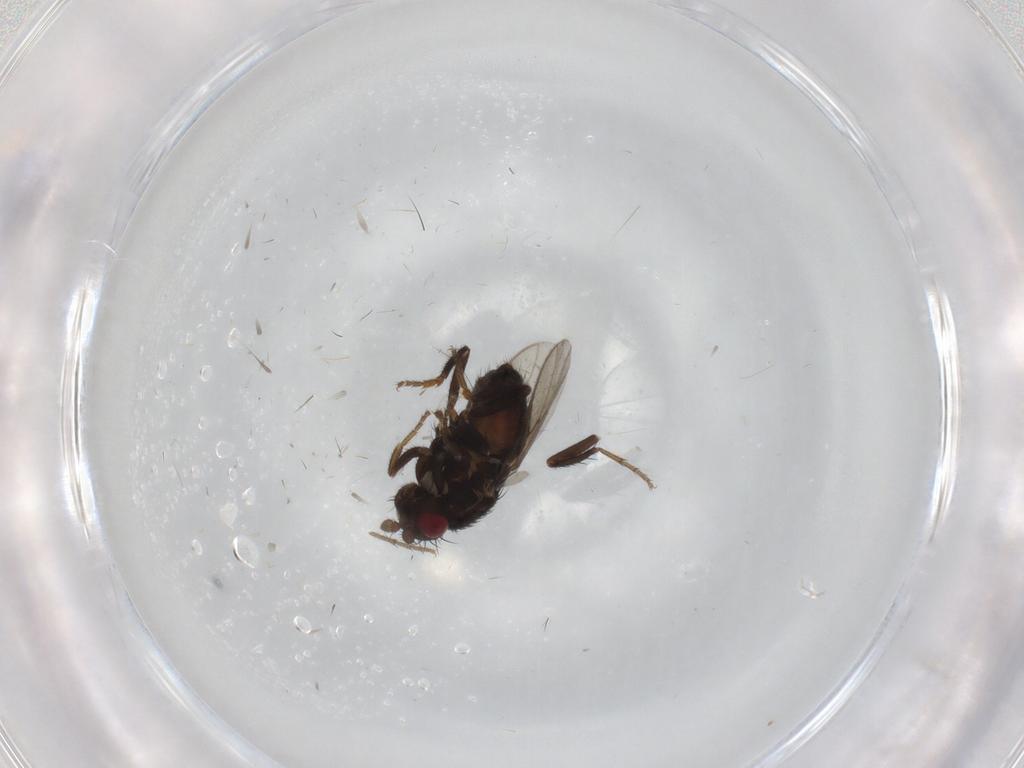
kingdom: Animalia
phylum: Arthropoda
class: Insecta
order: Diptera
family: Sphaeroceridae
